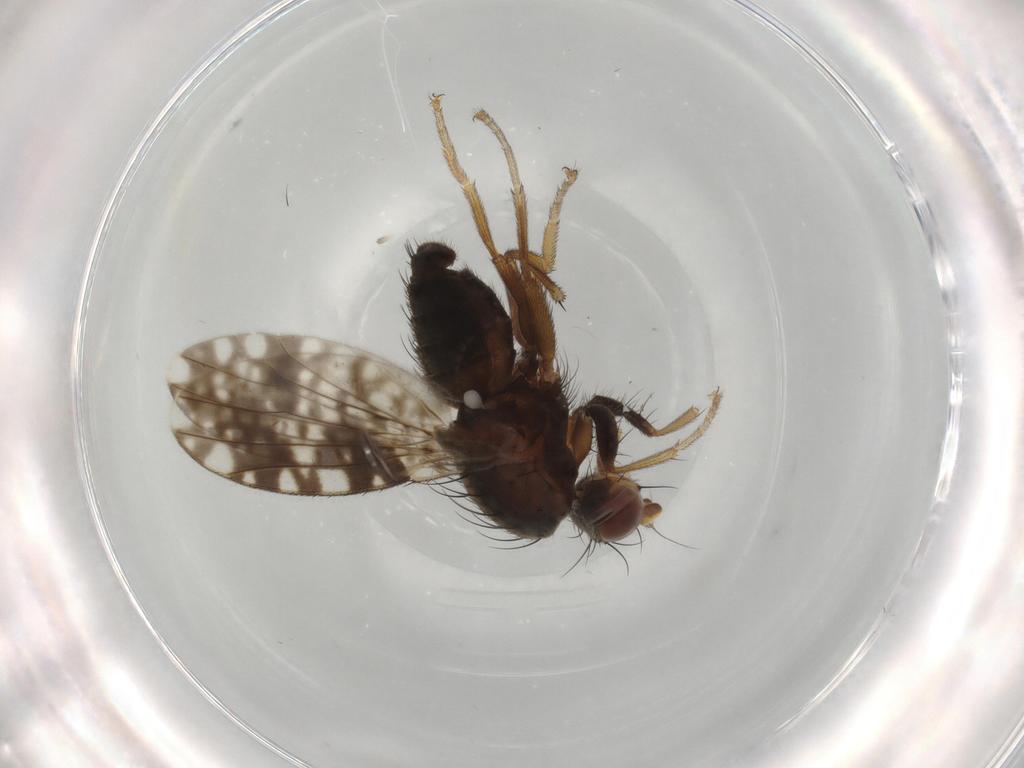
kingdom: Animalia
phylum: Arthropoda
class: Insecta
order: Diptera
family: Tephritidae
